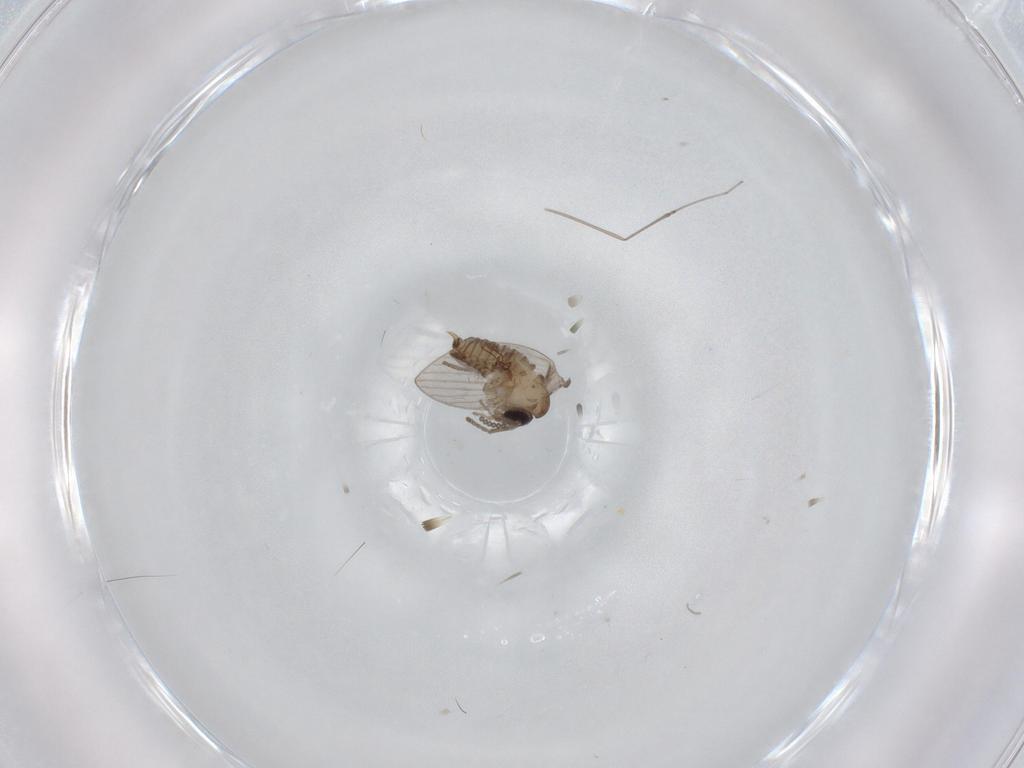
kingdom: Animalia
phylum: Arthropoda
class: Insecta
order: Diptera
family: Psychodidae
